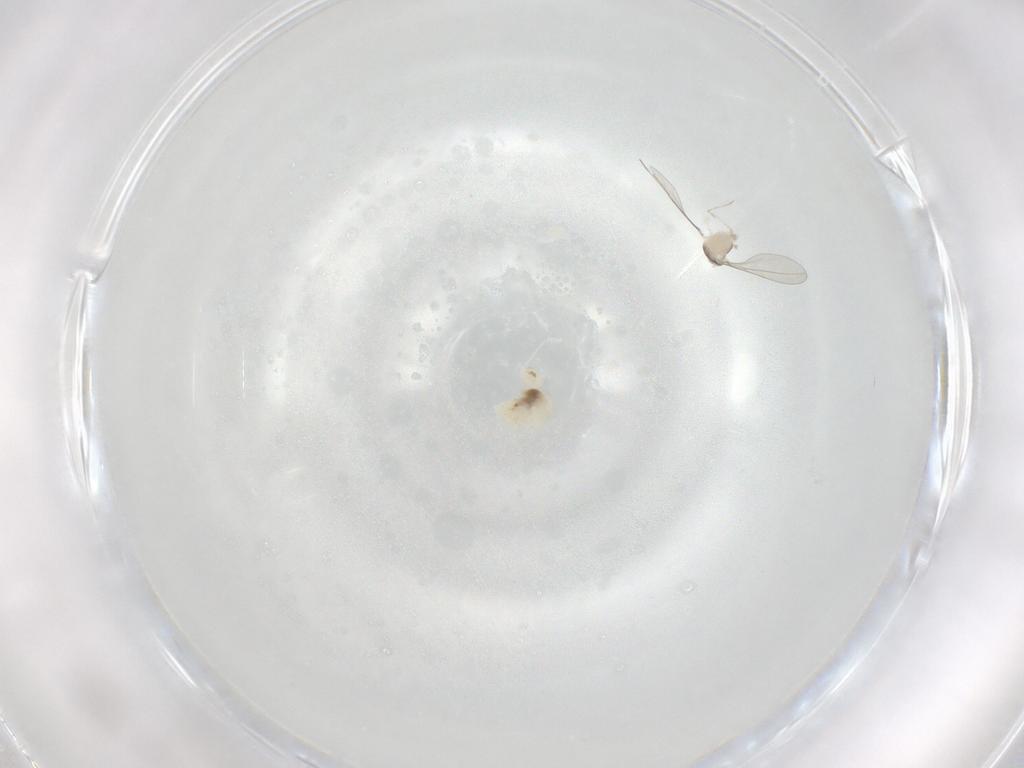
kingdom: Animalia
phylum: Arthropoda
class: Insecta
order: Diptera
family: Cecidomyiidae
